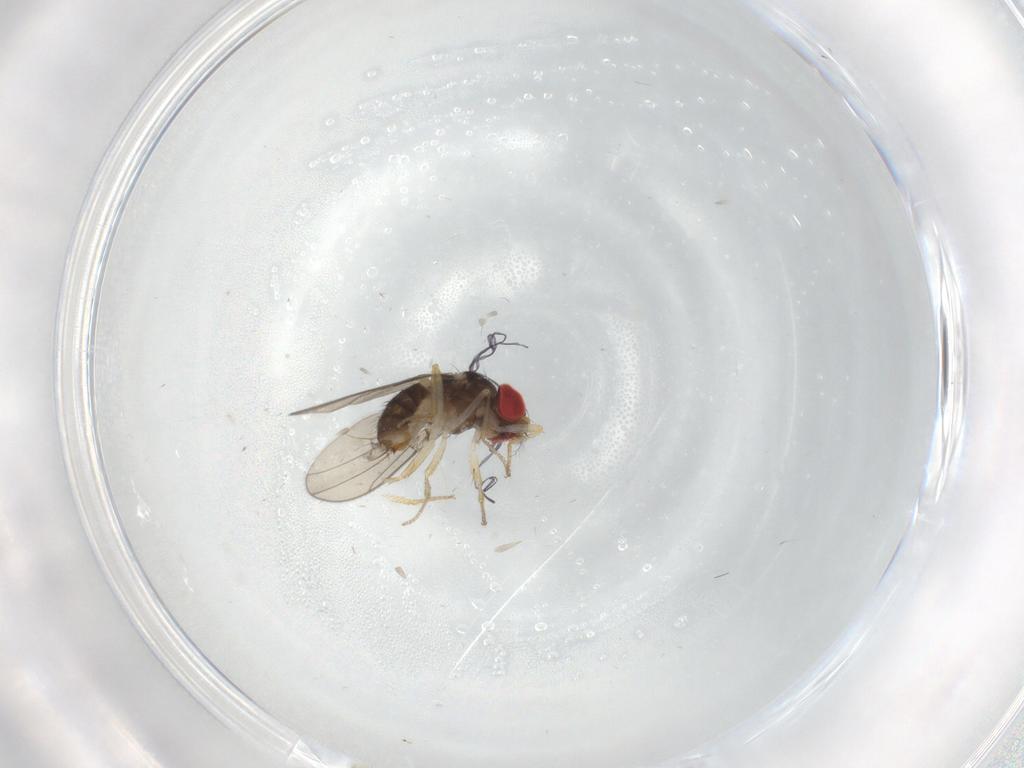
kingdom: Animalia
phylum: Arthropoda
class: Insecta
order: Diptera
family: Drosophilidae
